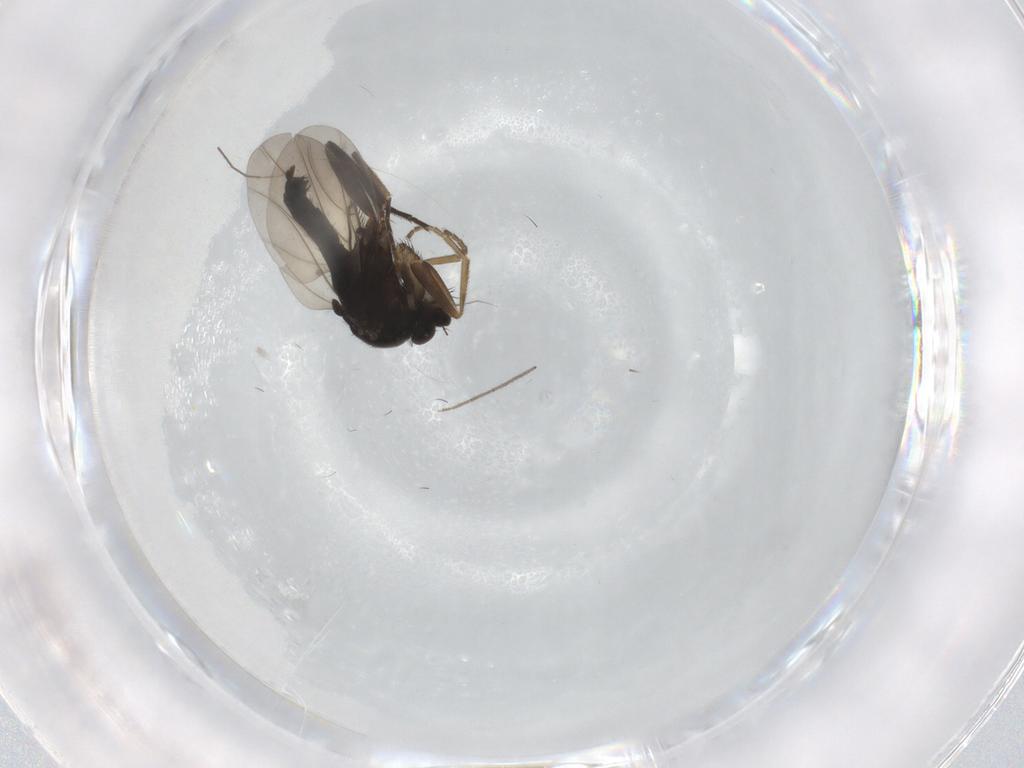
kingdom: Animalia
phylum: Arthropoda
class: Insecta
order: Diptera
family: Phoridae
